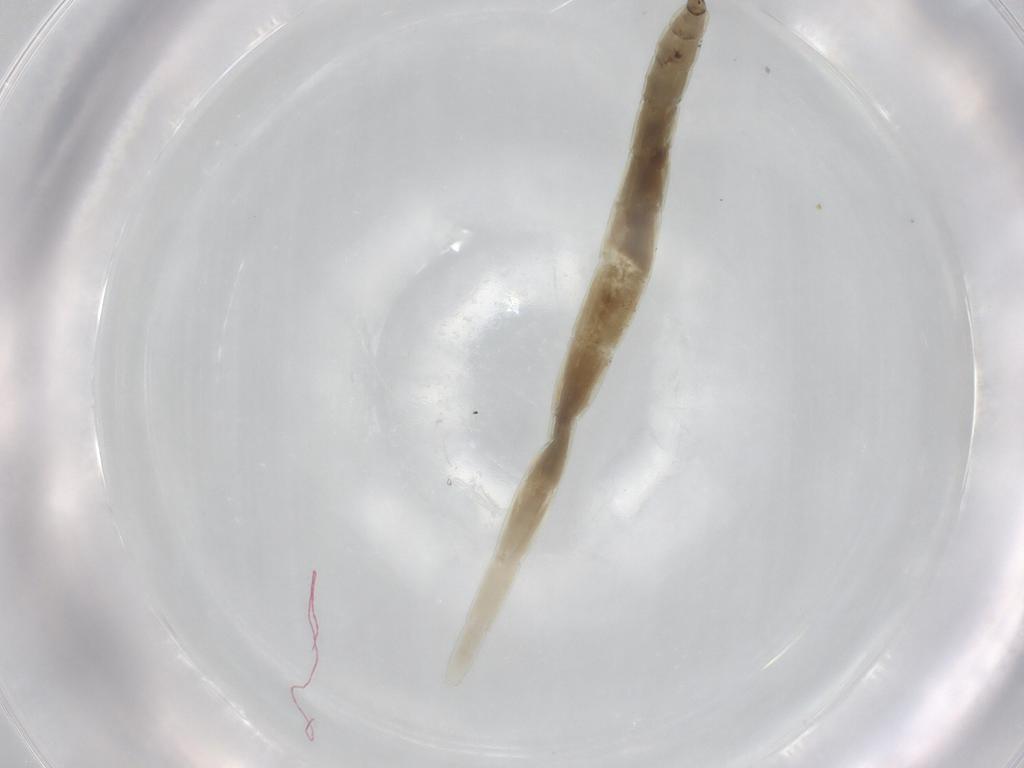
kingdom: Animalia
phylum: Arthropoda
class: Insecta
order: Diptera
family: Ceratopogonidae
